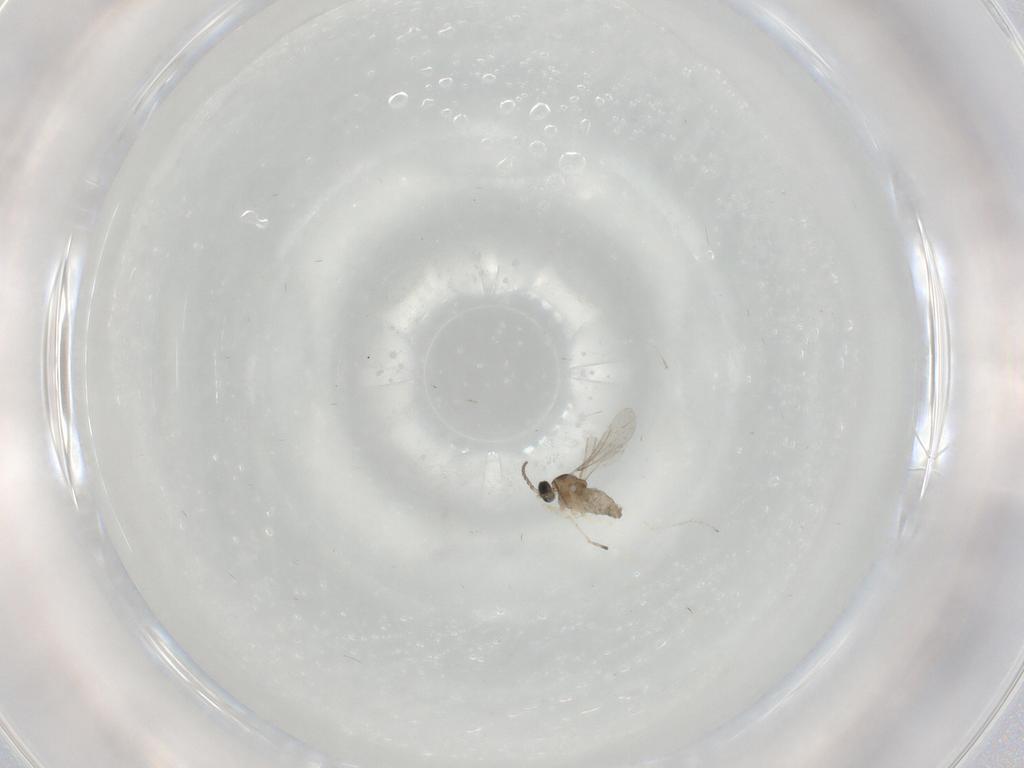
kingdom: Animalia
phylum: Arthropoda
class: Insecta
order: Diptera
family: Cecidomyiidae
